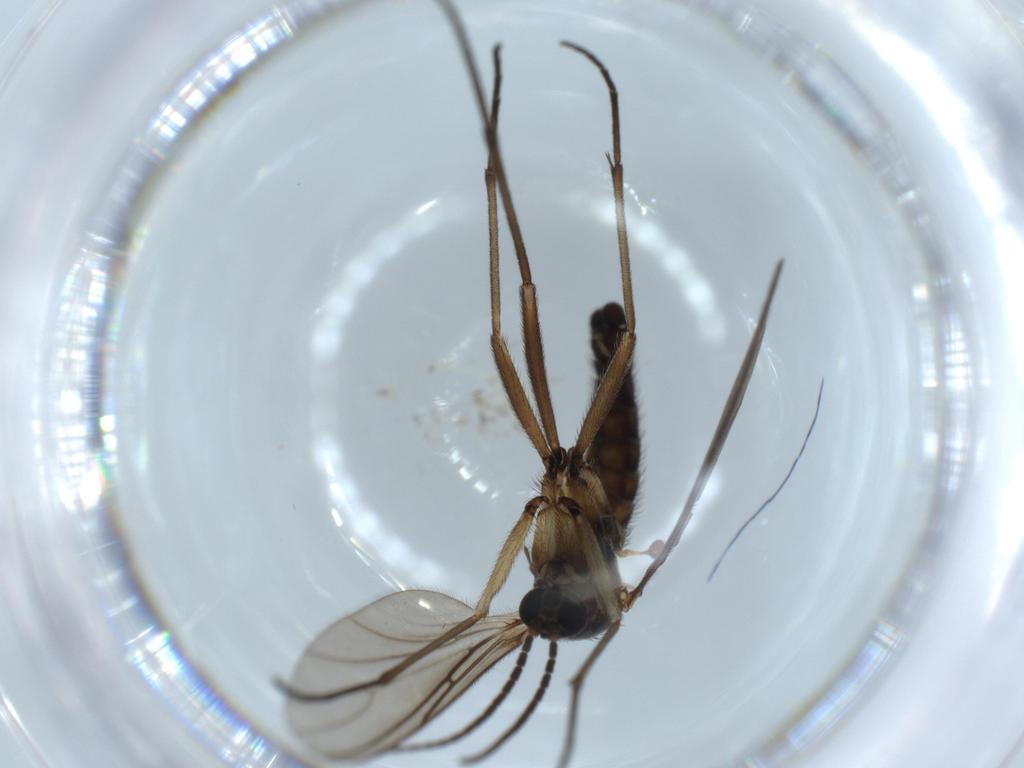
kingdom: Animalia
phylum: Arthropoda
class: Insecta
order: Diptera
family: Sciaridae
